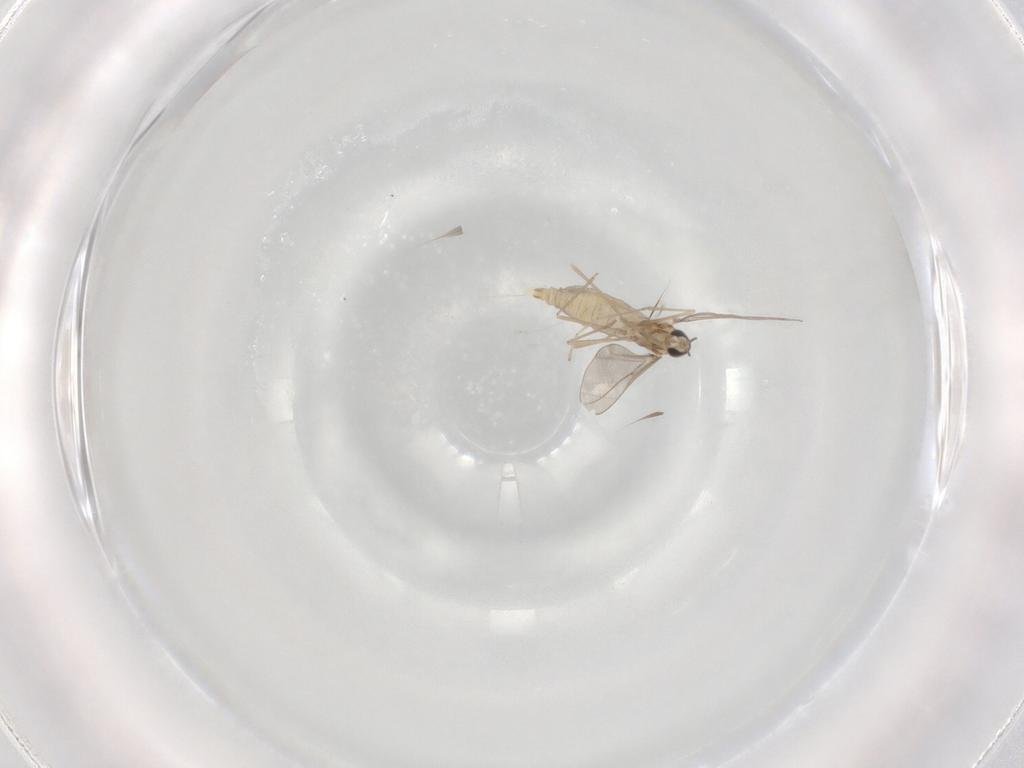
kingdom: Animalia
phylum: Arthropoda
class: Insecta
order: Diptera
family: Cecidomyiidae
